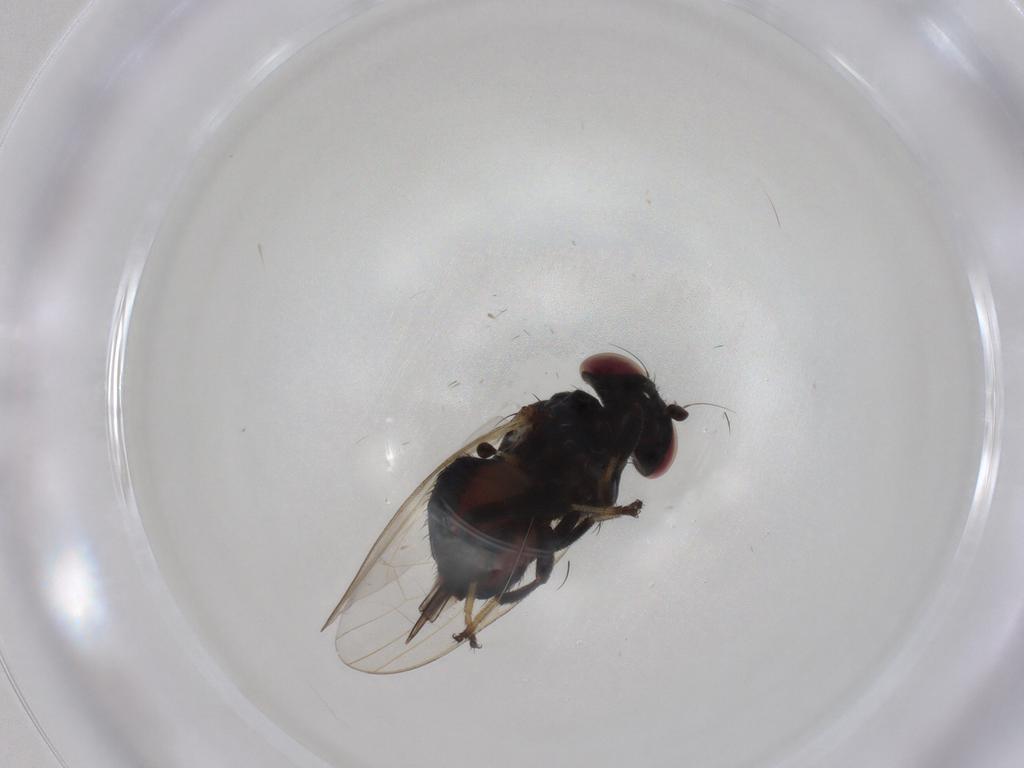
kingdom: Animalia
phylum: Arthropoda
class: Insecta
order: Diptera
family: Lonchaeidae
